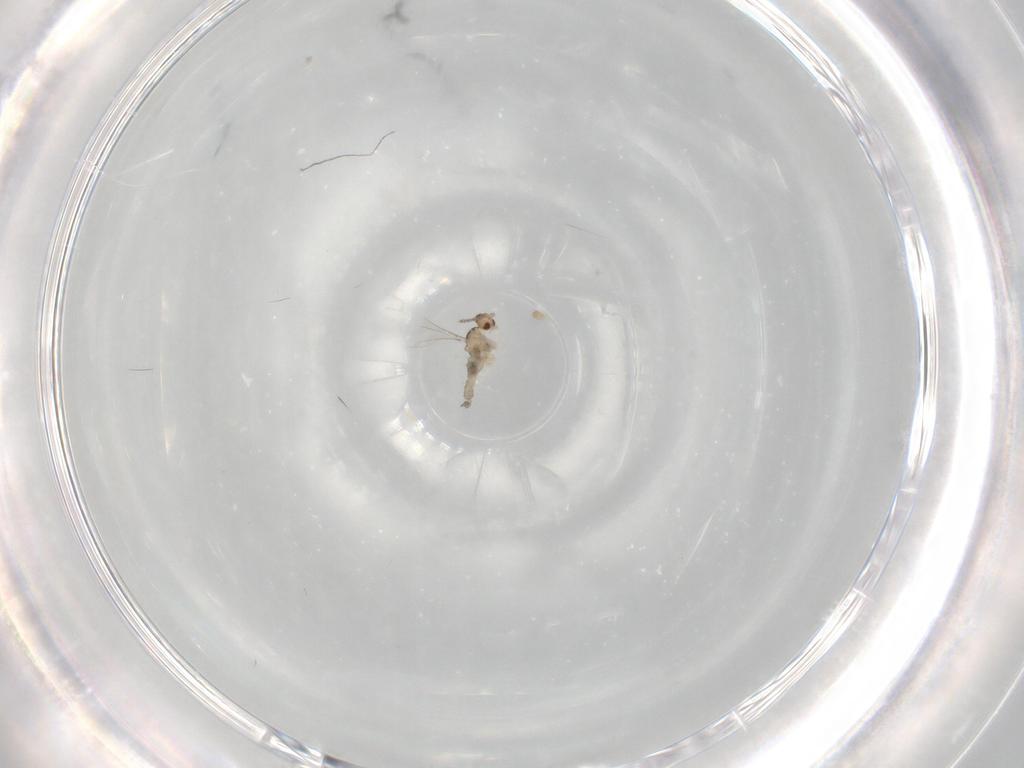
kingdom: Animalia
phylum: Arthropoda
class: Insecta
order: Diptera
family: Cecidomyiidae
